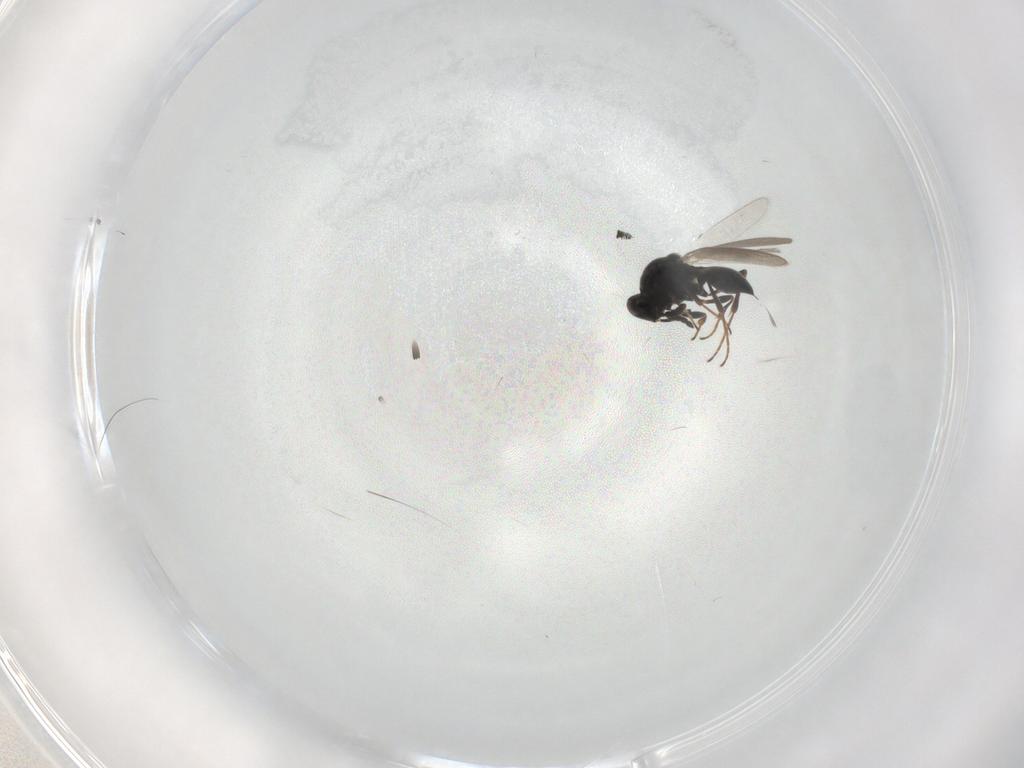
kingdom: Animalia
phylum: Arthropoda
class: Insecta
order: Hymenoptera
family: Platygastridae
